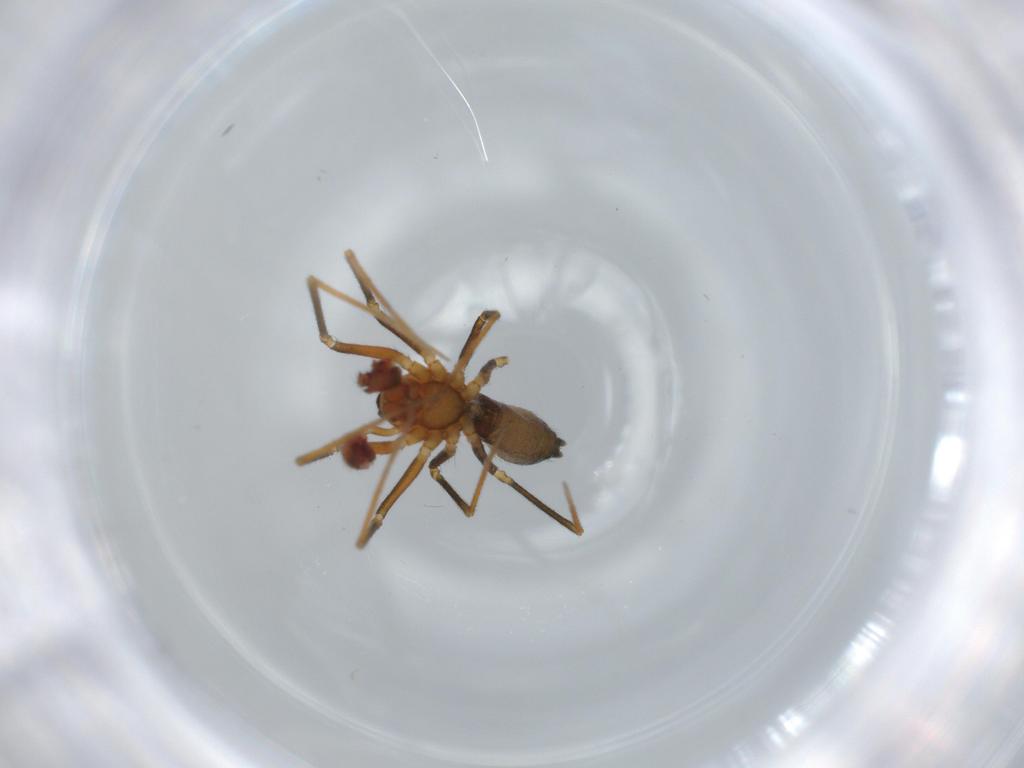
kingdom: Animalia
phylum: Arthropoda
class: Arachnida
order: Araneae
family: Linyphiidae
